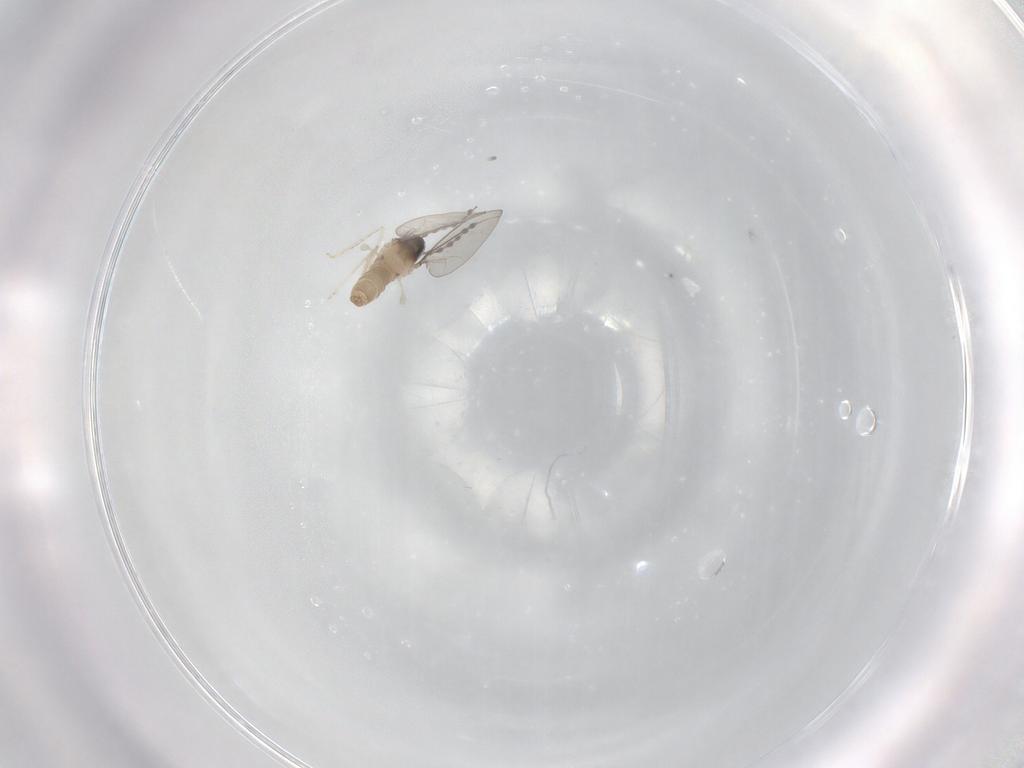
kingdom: Animalia
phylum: Arthropoda
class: Insecta
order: Diptera
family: Cecidomyiidae
